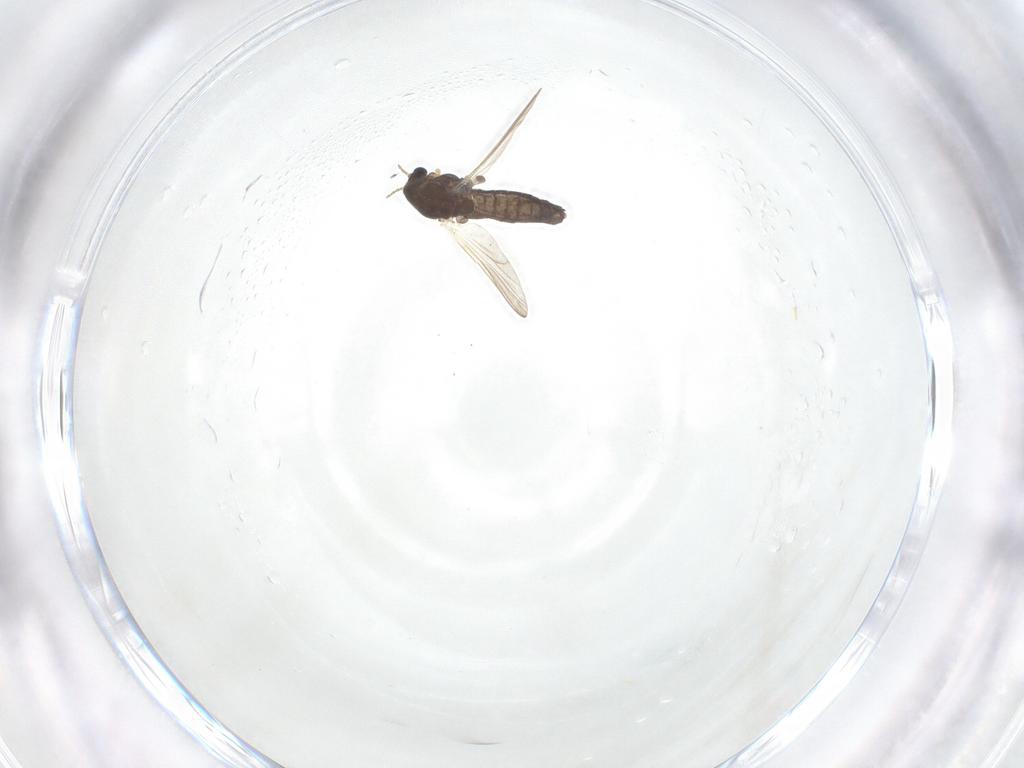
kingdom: Animalia
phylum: Arthropoda
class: Insecta
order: Diptera
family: Chironomidae
